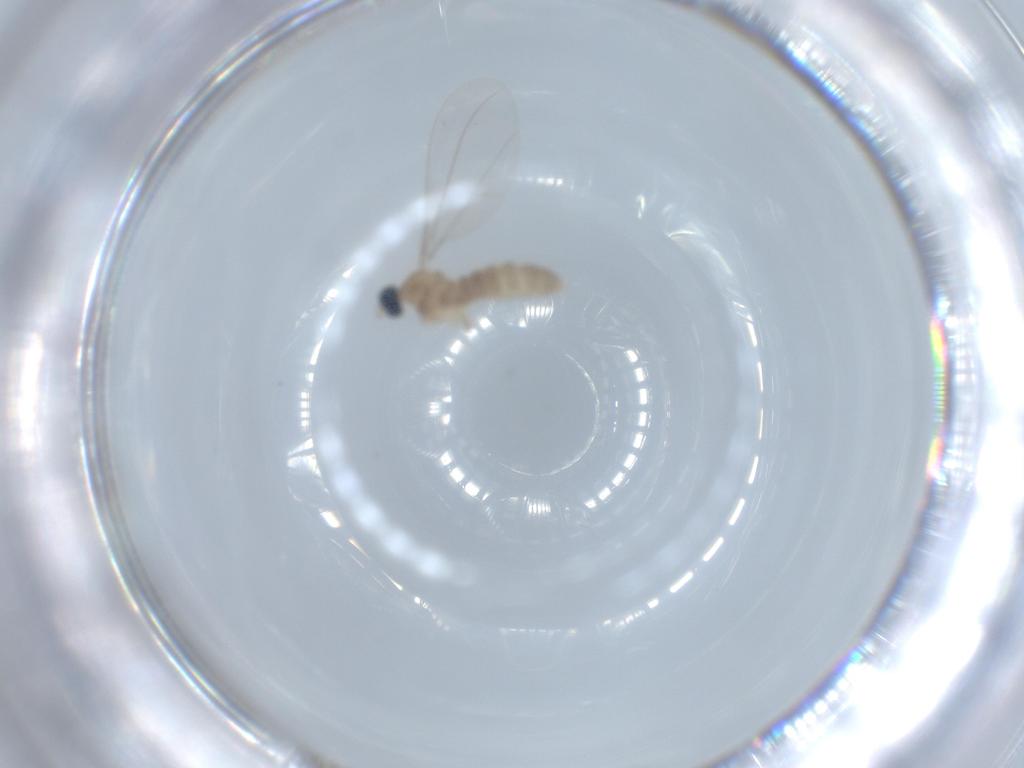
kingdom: Animalia
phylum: Arthropoda
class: Insecta
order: Diptera
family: Cecidomyiidae
